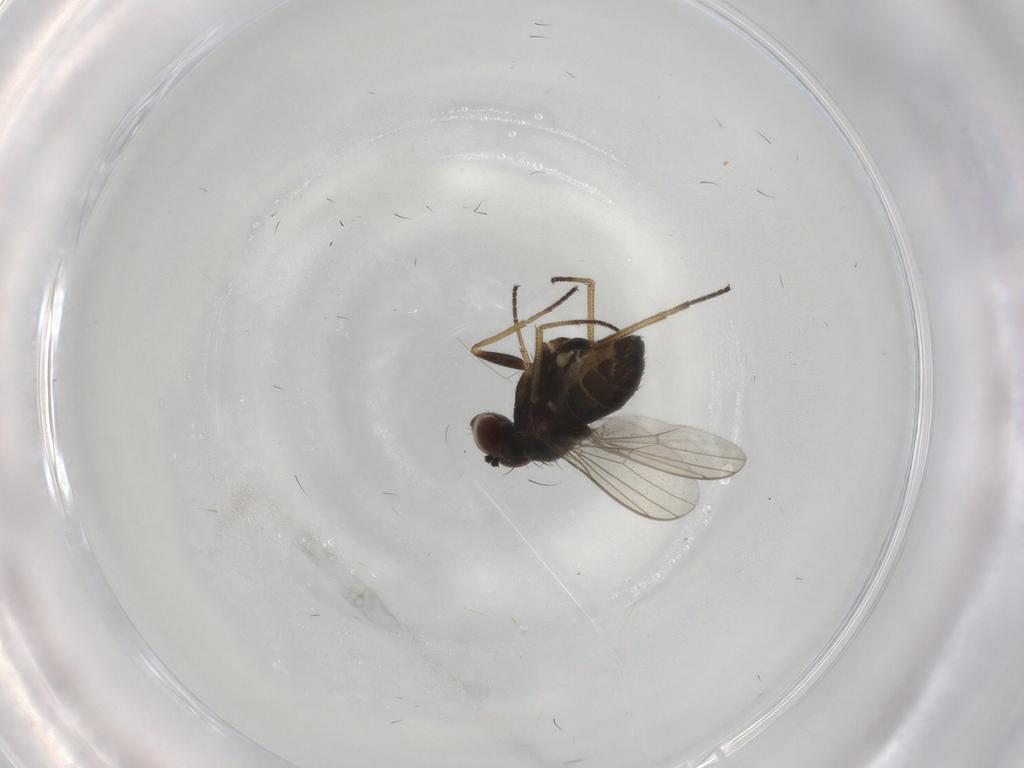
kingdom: Animalia
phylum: Arthropoda
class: Insecta
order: Diptera
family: Dolichopodidae
